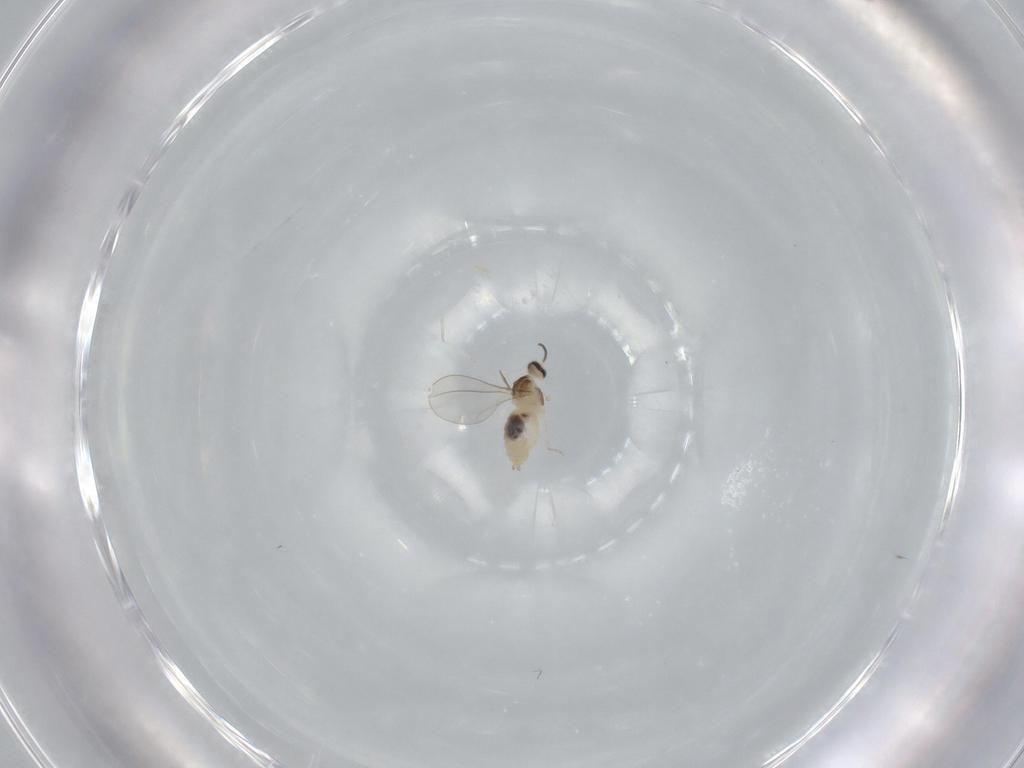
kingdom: Animalia
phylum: Arthropoda
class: Insecta
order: Diptera
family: Cecidomyiidae
